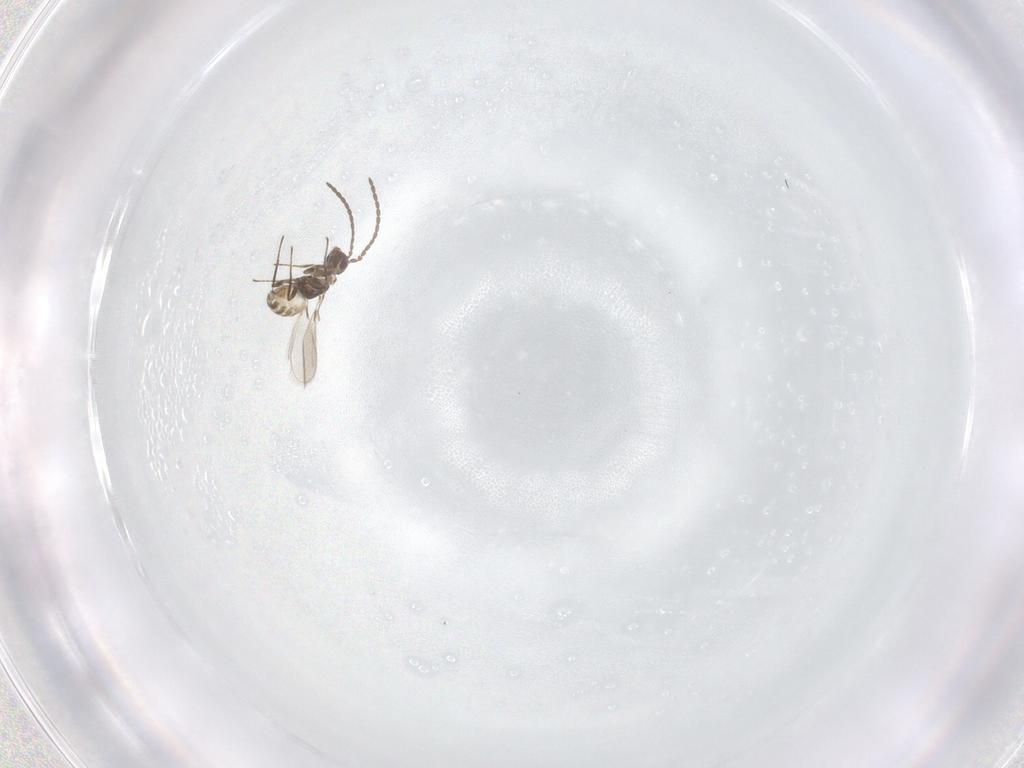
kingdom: Animalia
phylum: Arthropoda
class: Insecta
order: Hymenoptera
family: Mymaridae
